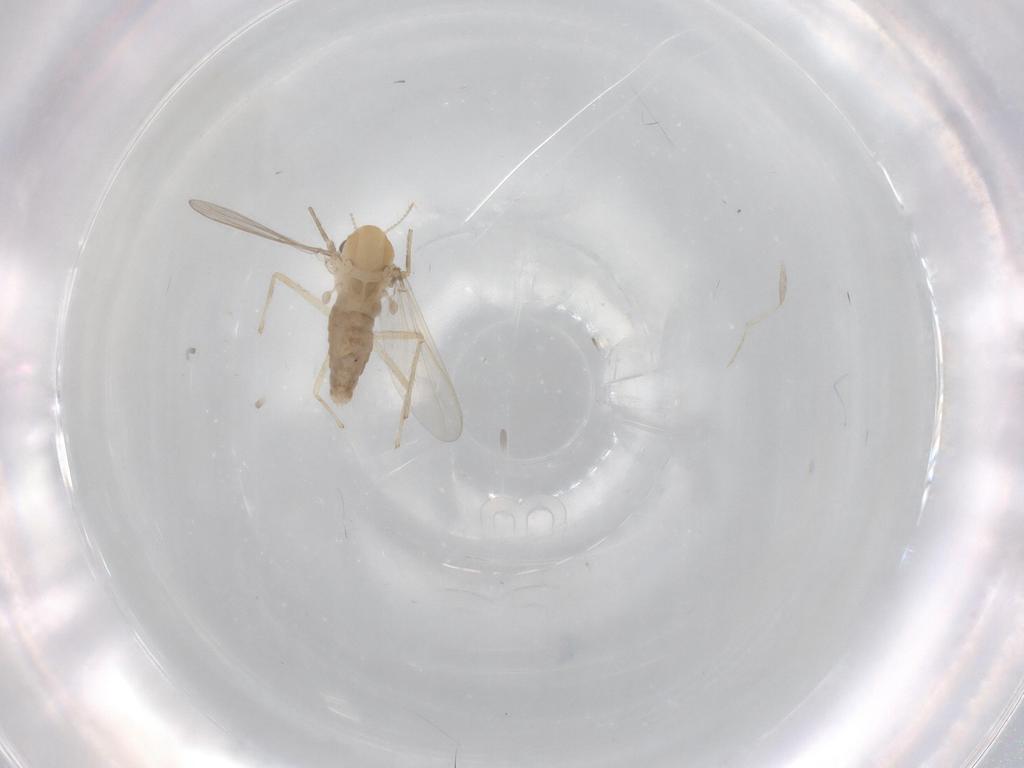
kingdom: Animalia
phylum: Arthropoda
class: Insecta
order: Diptera
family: Chironomidae
